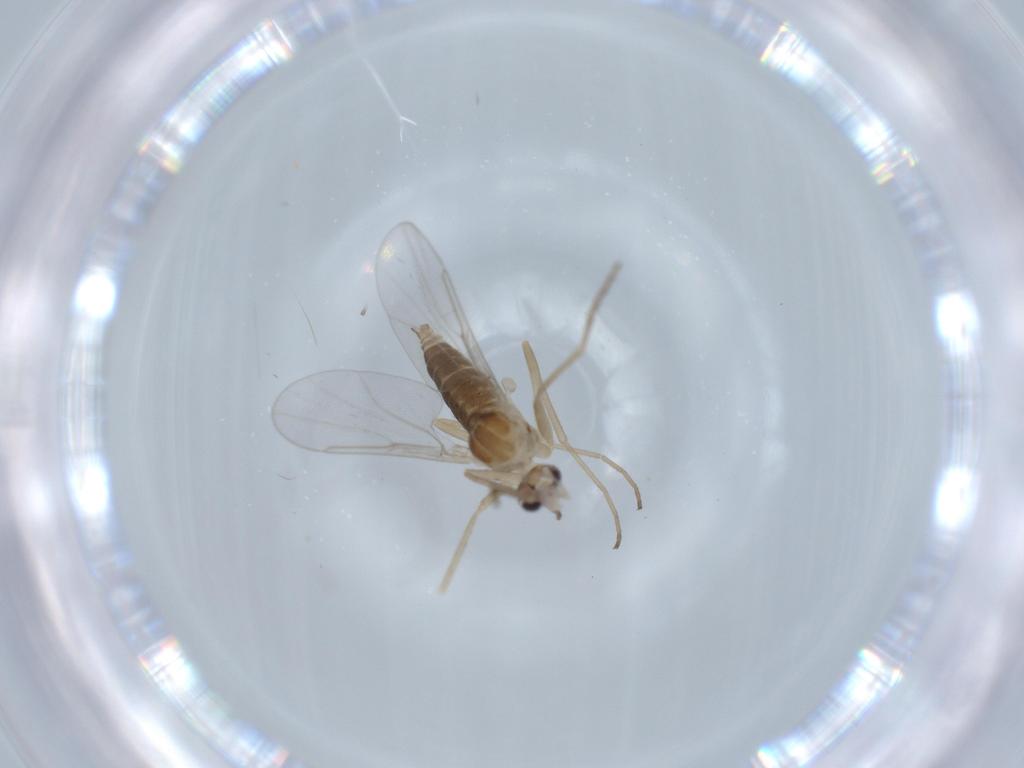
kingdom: Animalia
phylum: Arthropoda
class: Insecta
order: Diptera
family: Cecidomyiidae
